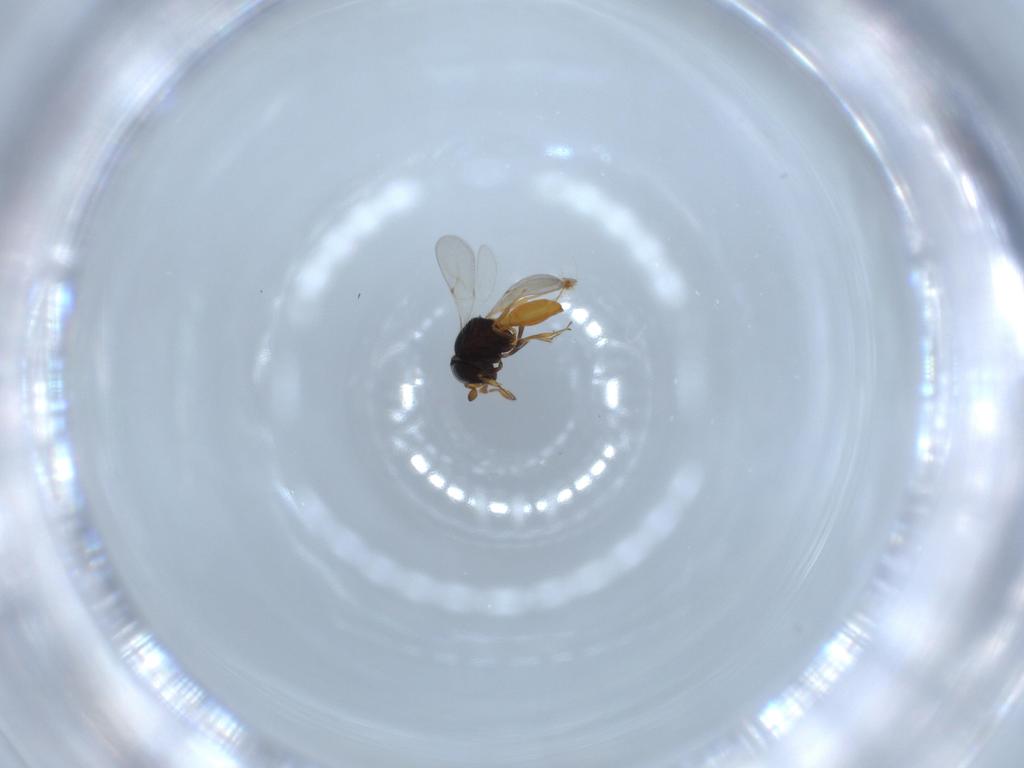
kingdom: Animalia
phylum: Arthropoda
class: Insecta
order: Hymenoptera
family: Scelionidae
